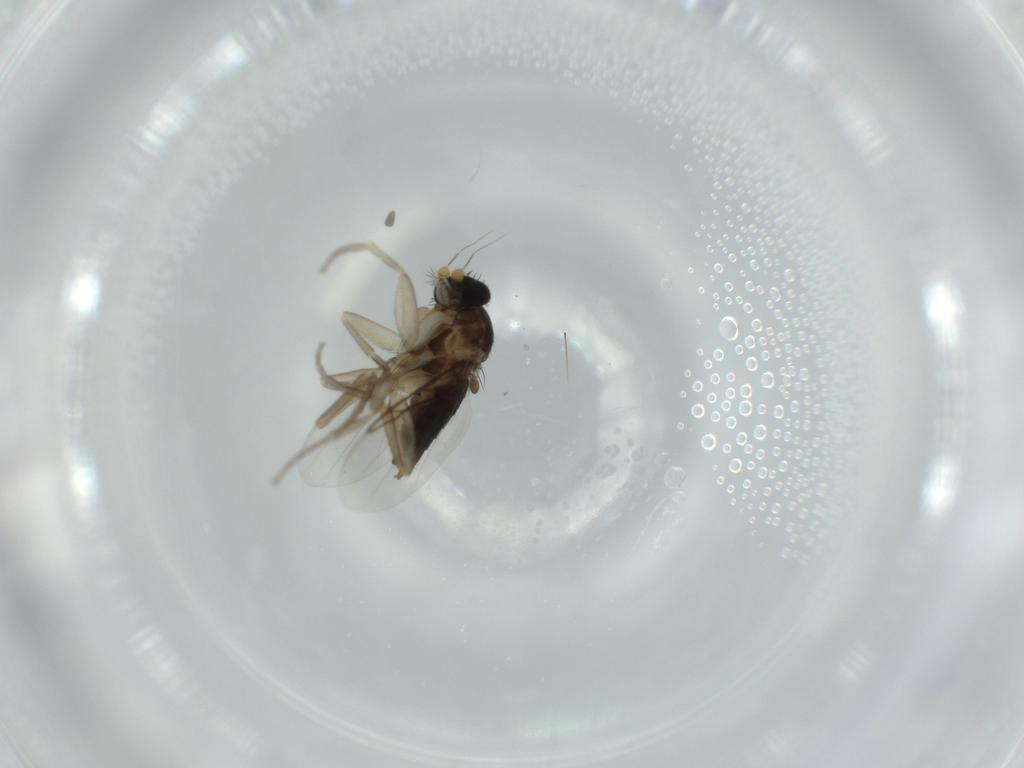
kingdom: Animalia
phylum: Arthropoda
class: Insecta
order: Diptera
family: Phoridae
